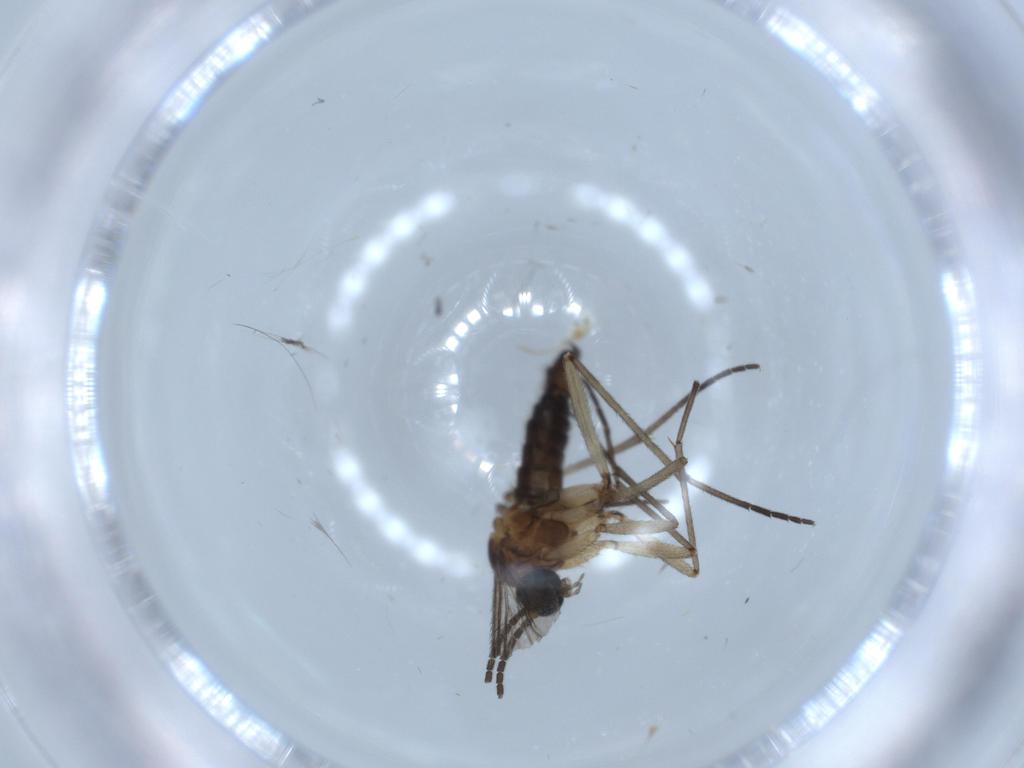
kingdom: Animalia
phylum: Arthropoda
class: Insecta
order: Diptera
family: Sciaridae
